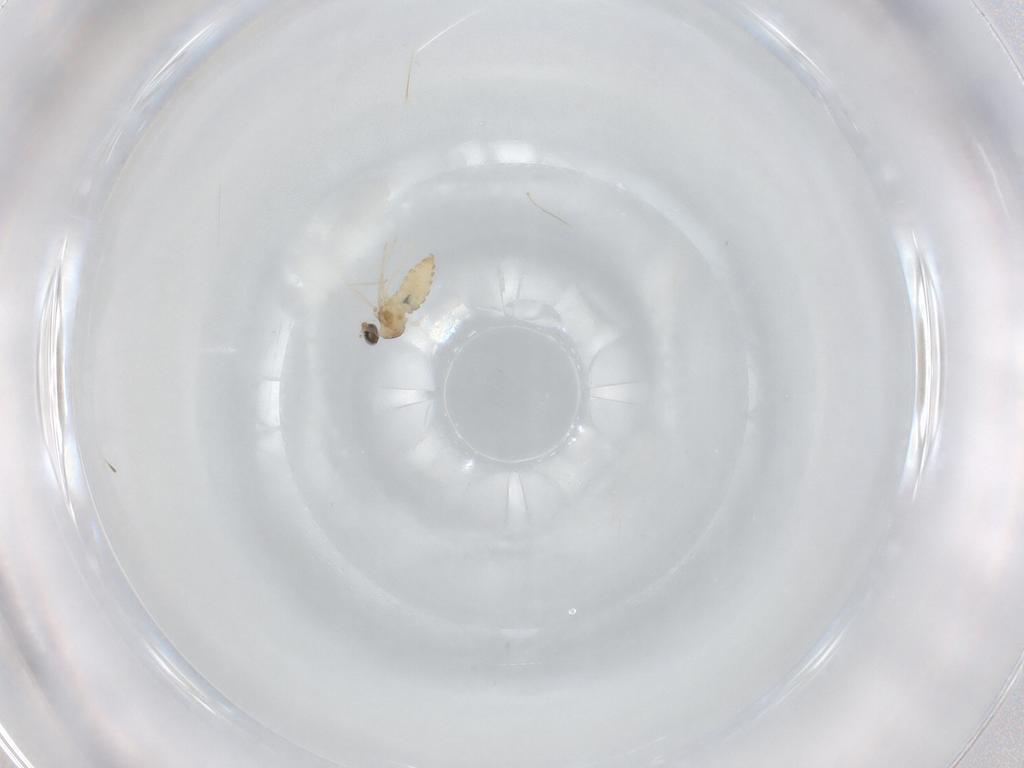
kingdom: Animalia
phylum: Arthropoda
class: Insecta
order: Diptera
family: Cecidomyiidae
